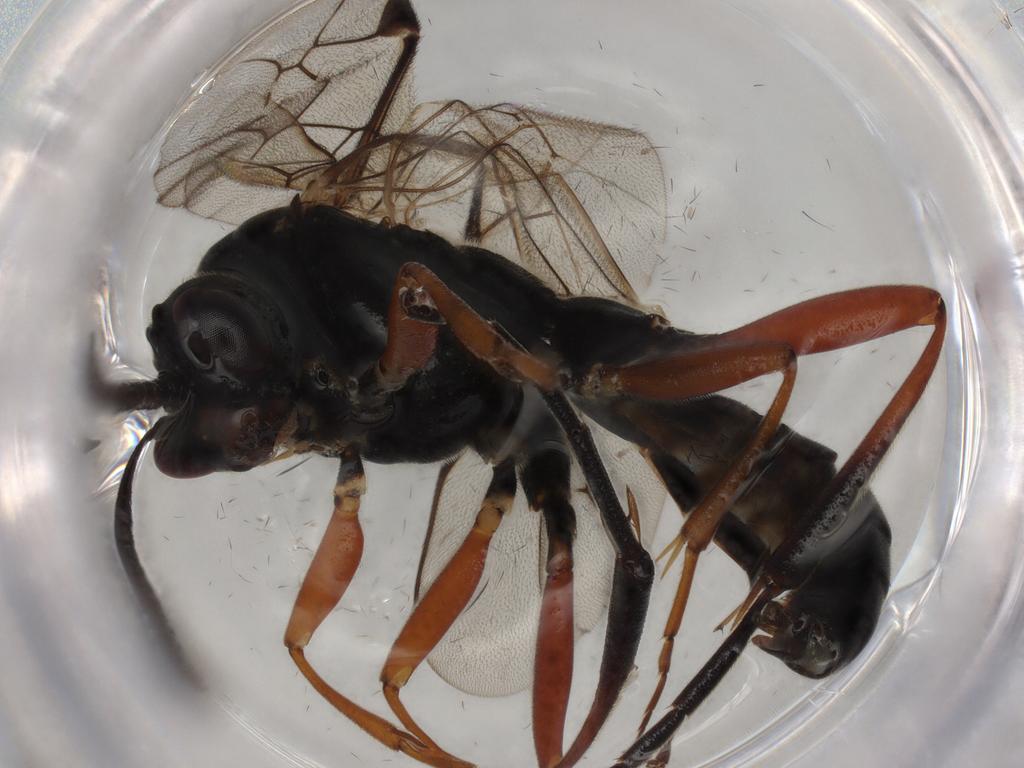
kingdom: Animalia
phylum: Arthropoda
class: Insecta
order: Hymenoptera
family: Ichneumonidae
